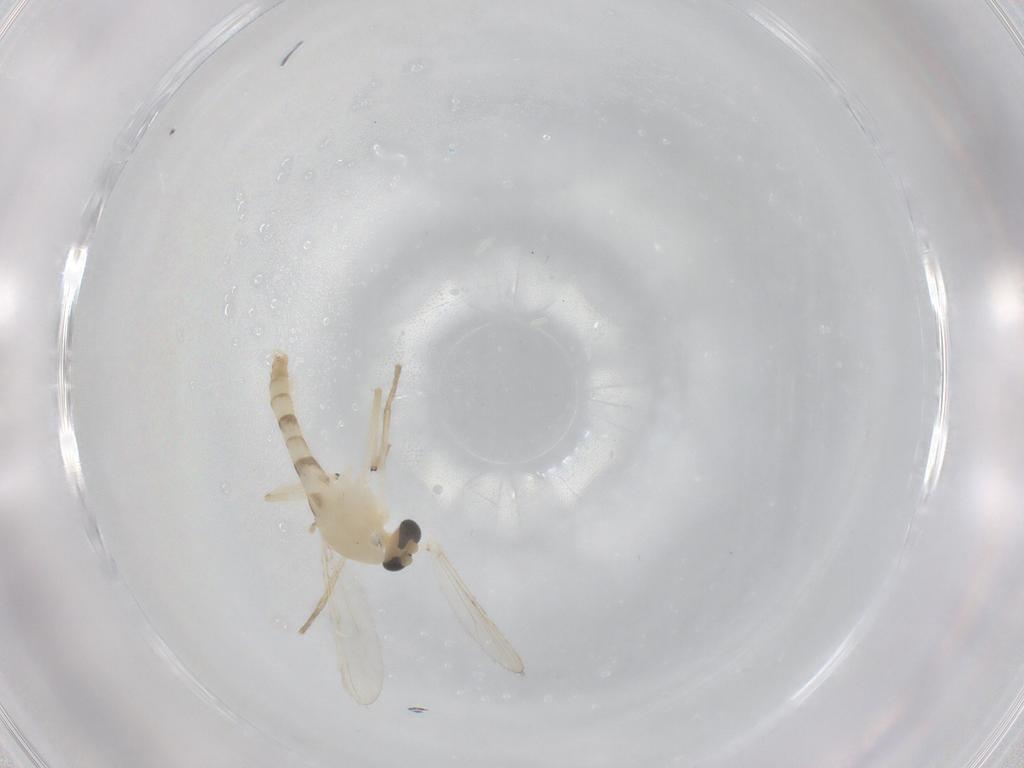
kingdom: Animalia
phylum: Arthropoda
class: Insecta
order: Diptera
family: Chironomidae
